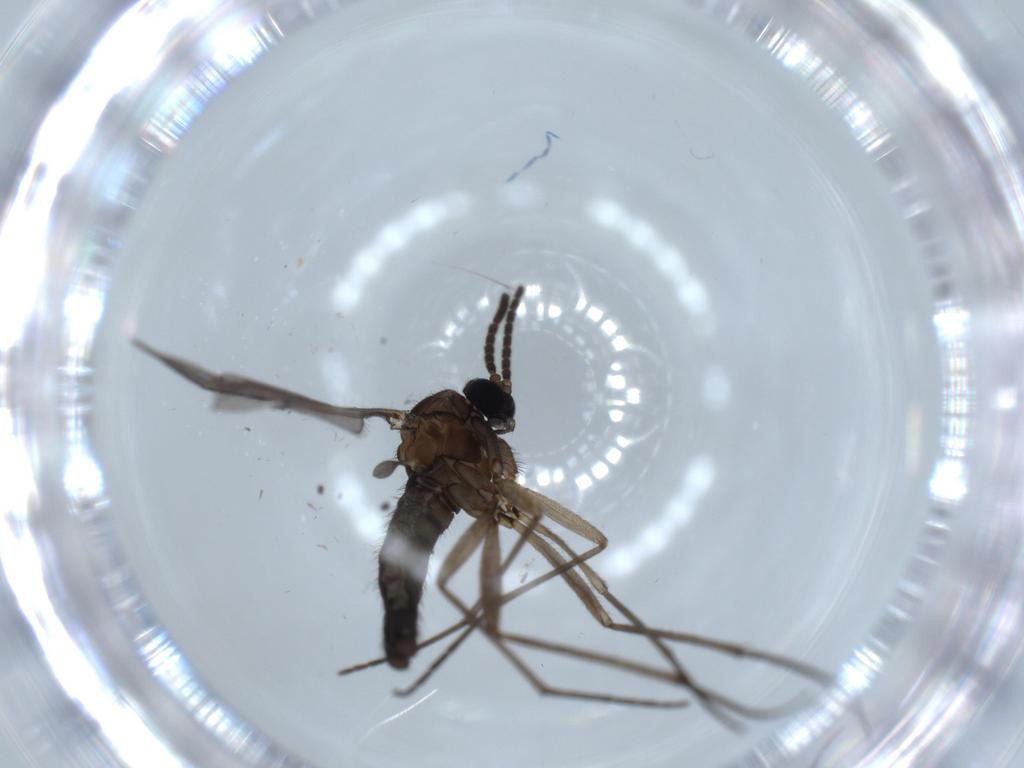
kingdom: Animalia
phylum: Arthropoda
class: Insecta
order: Diptera
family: Sciaridae
